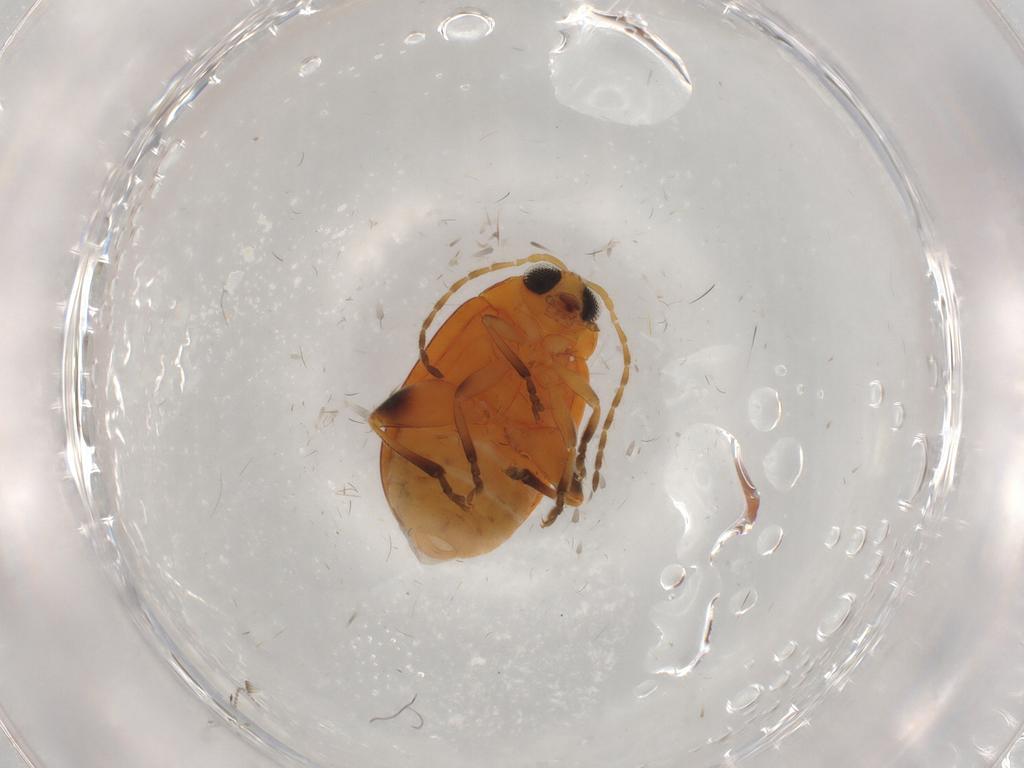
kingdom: Animalia
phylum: Arthropoda
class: Insecta
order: Coleoptera
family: Chrysomelidae
